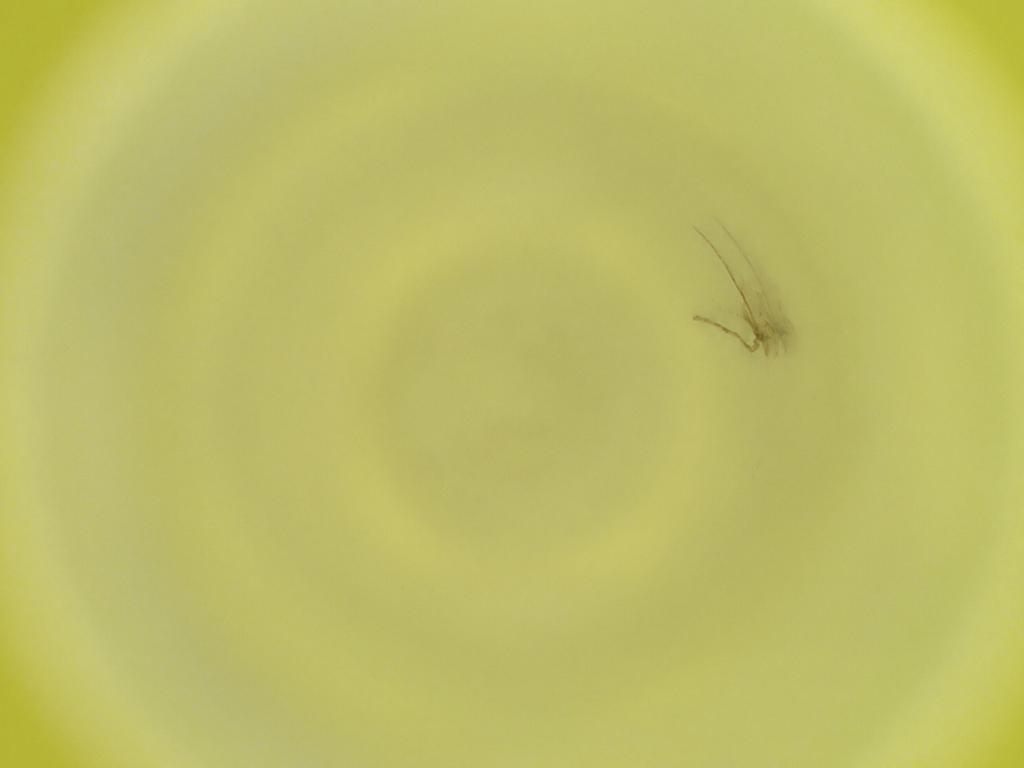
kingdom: Animalia
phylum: Arthropoda
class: Insecta
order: Diptera
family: Cecidomyiidae
